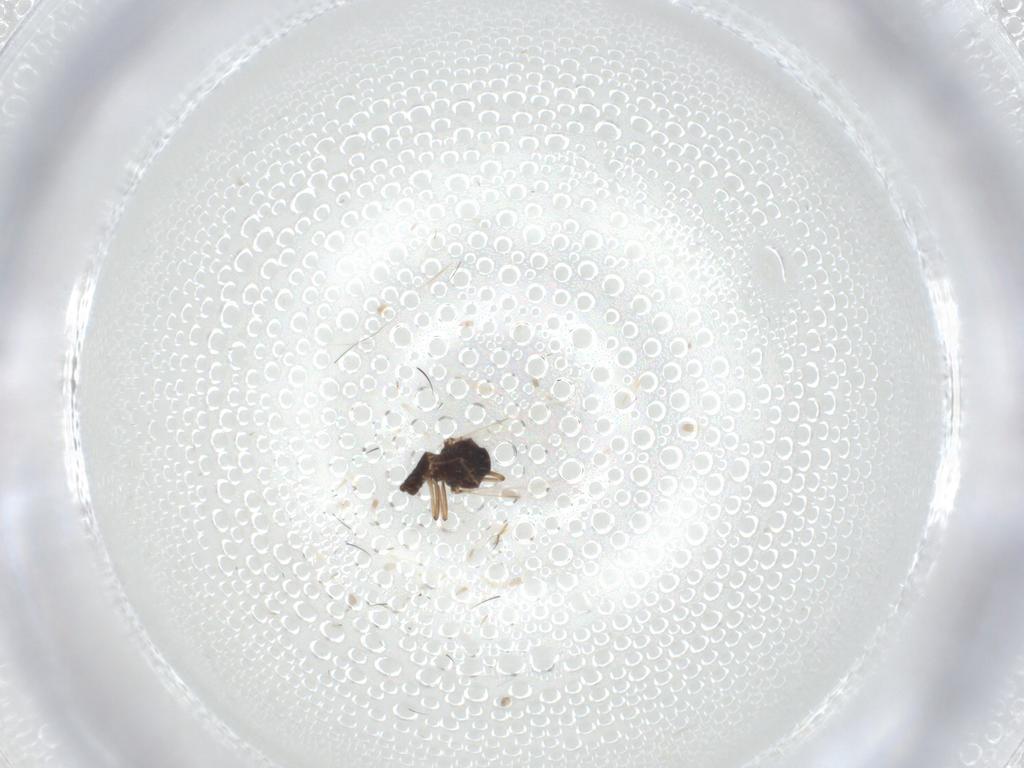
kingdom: Animalia
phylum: Arthropoda
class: Insecta
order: Diptera
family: Ceratopogonidae
